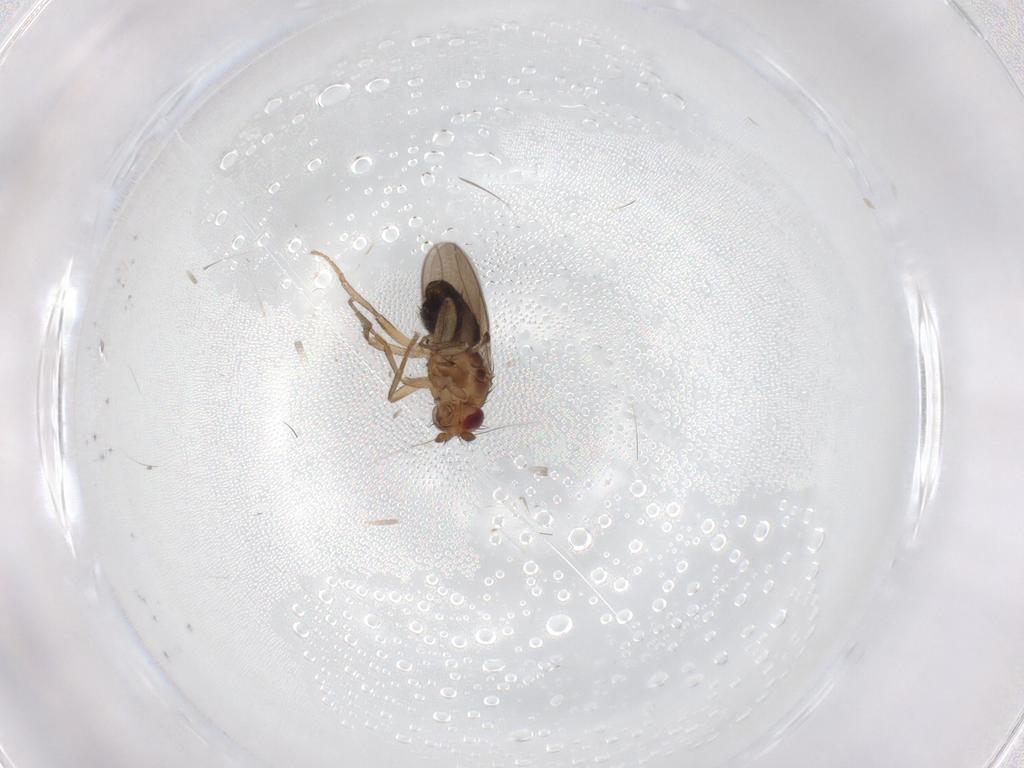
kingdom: Animalia
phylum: Arthropoda
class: Insecta
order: Diptera
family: Sphaeroceridae
